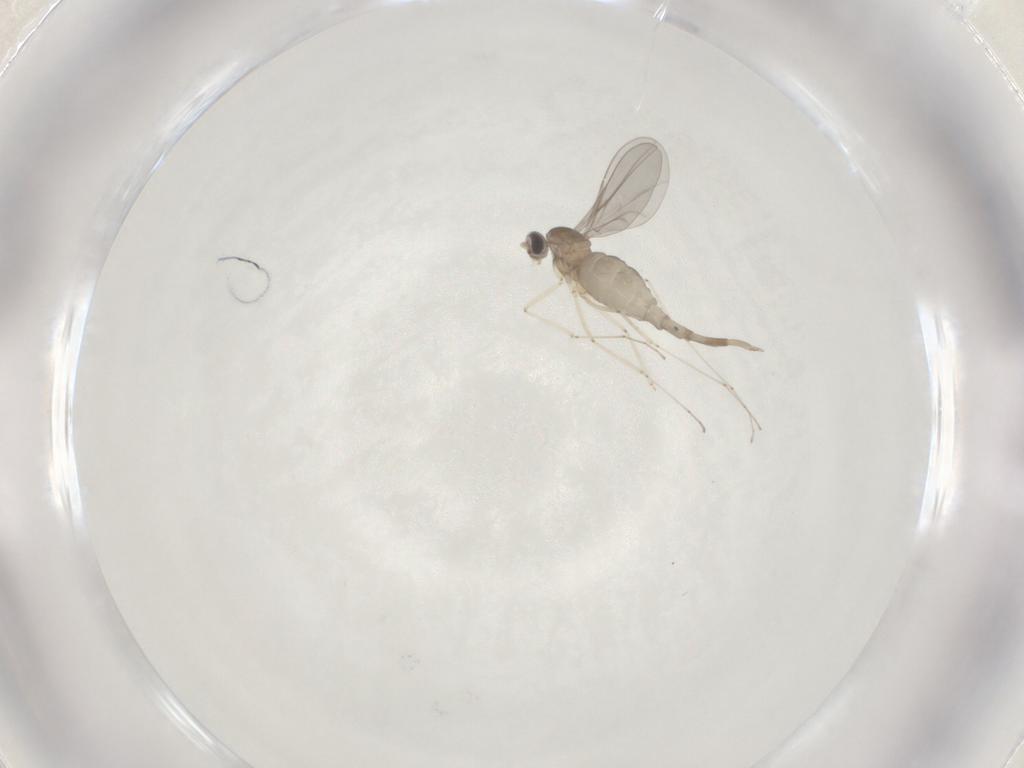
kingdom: Animalia
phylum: Arthropoda
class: Insecta
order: Diptera
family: Cecidomyiidae
